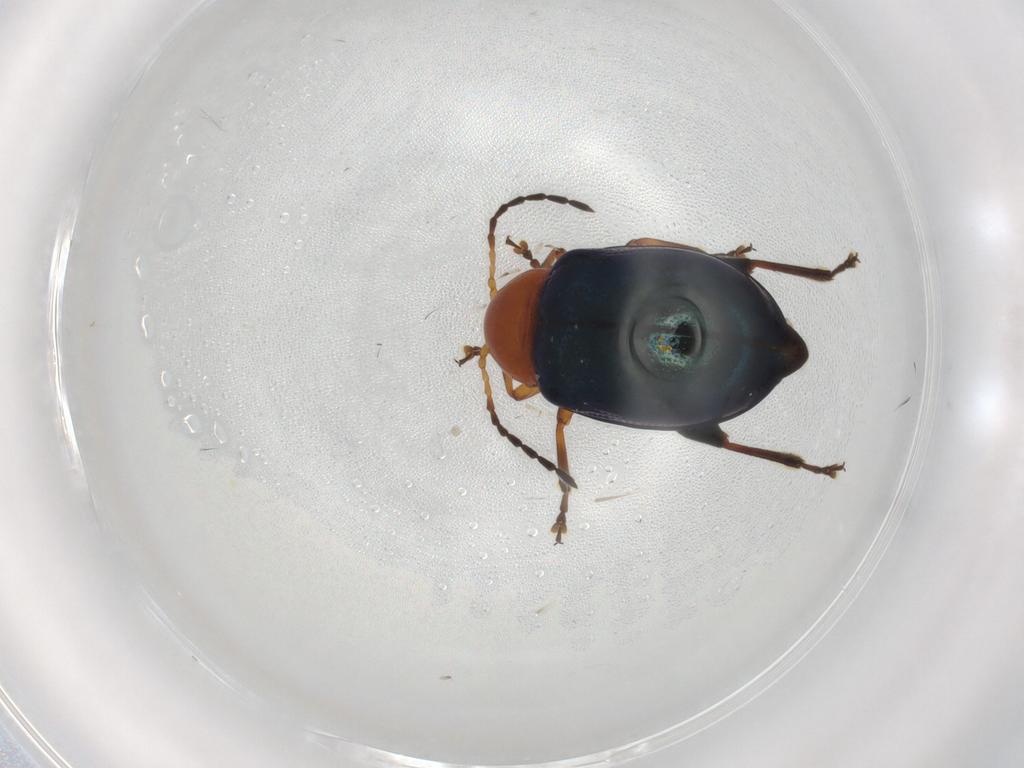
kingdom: Animalia
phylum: Arthropoda
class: Insecta
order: Coleoptera
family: Chrysomelidae
